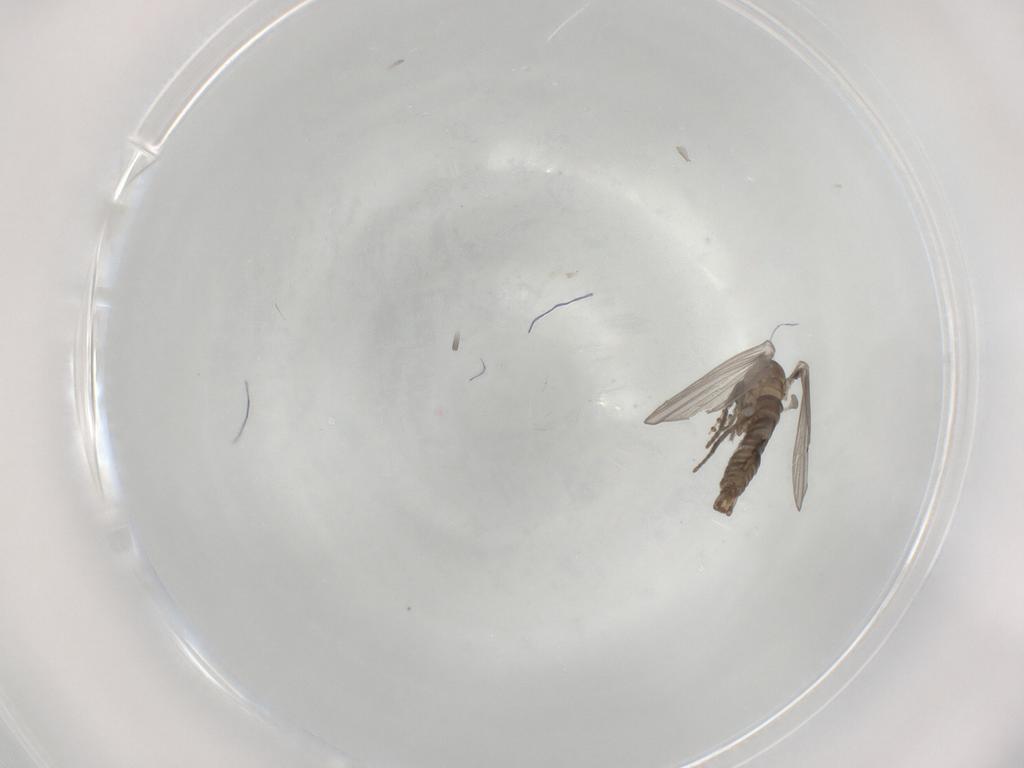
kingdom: Animalia
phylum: Arthropoda
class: Insecta
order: Diptera
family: Psychodidae
